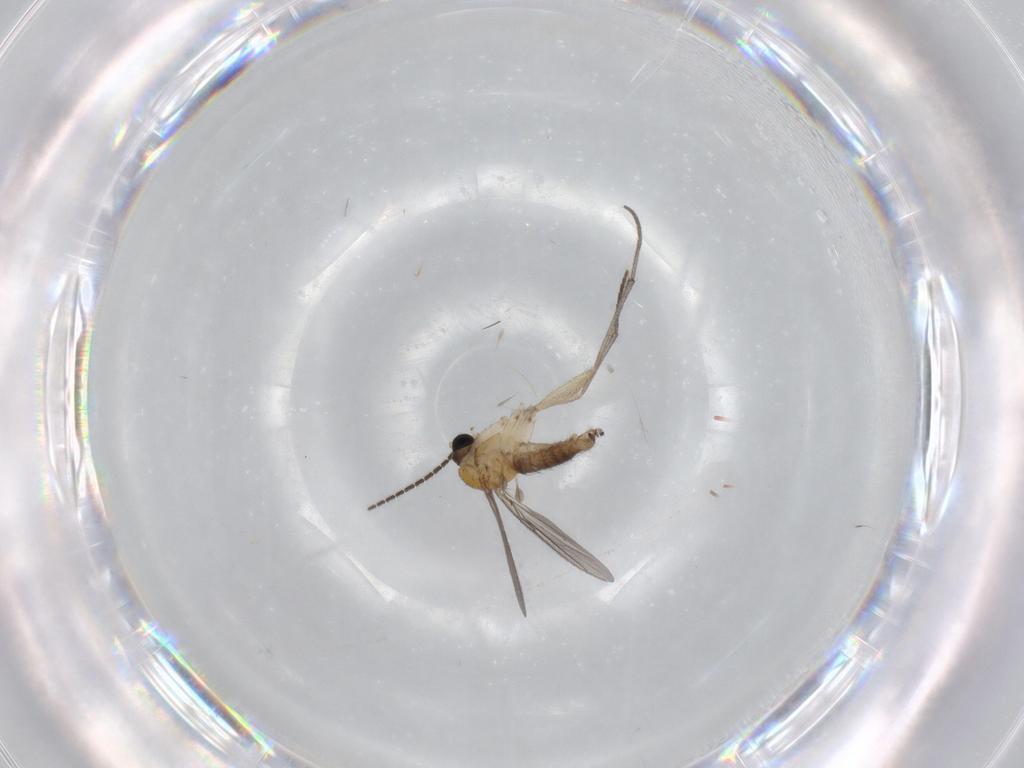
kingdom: Animalia
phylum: Arthropoda
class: Insecta
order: Diptera
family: Sciaridae
